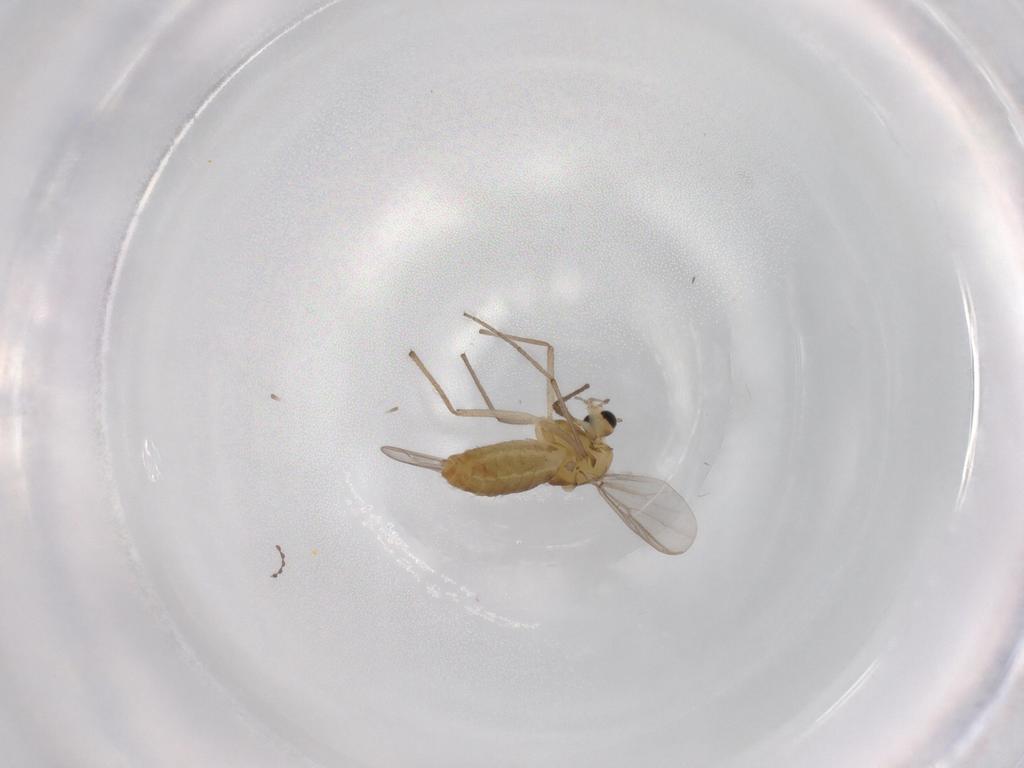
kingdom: Animalia
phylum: Arthropoda
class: Insecta
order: Diptera
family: Chironomidae
